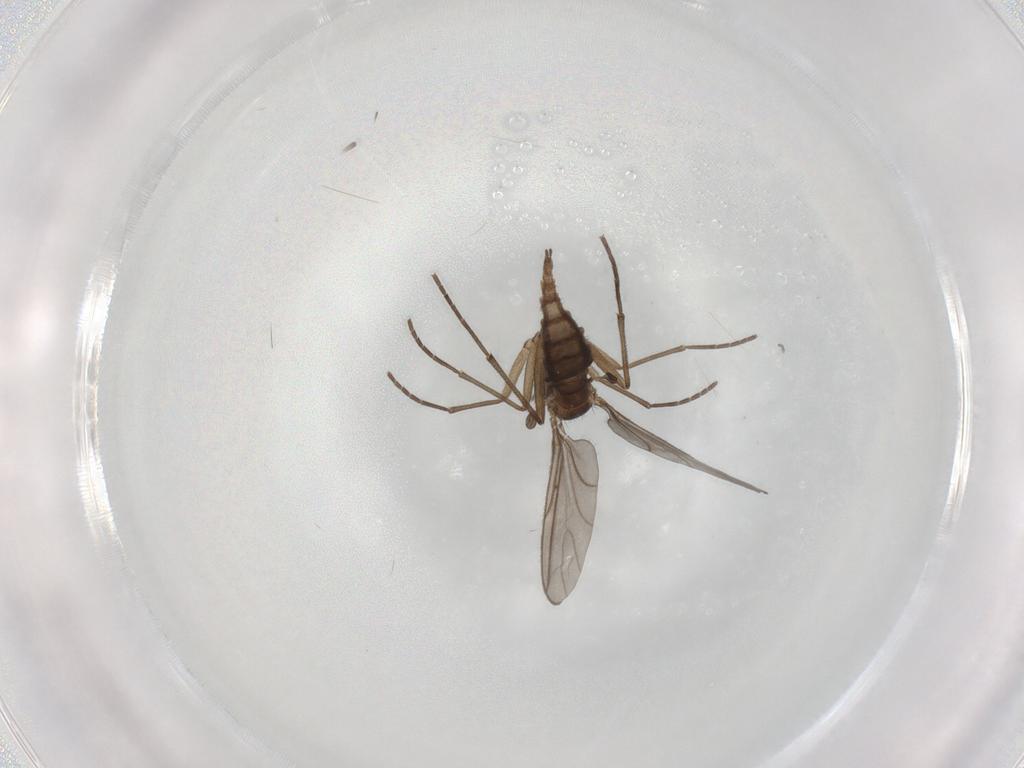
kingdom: Animalia
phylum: Arthropoda
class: Insecta
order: Diptera
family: Sciaridae
